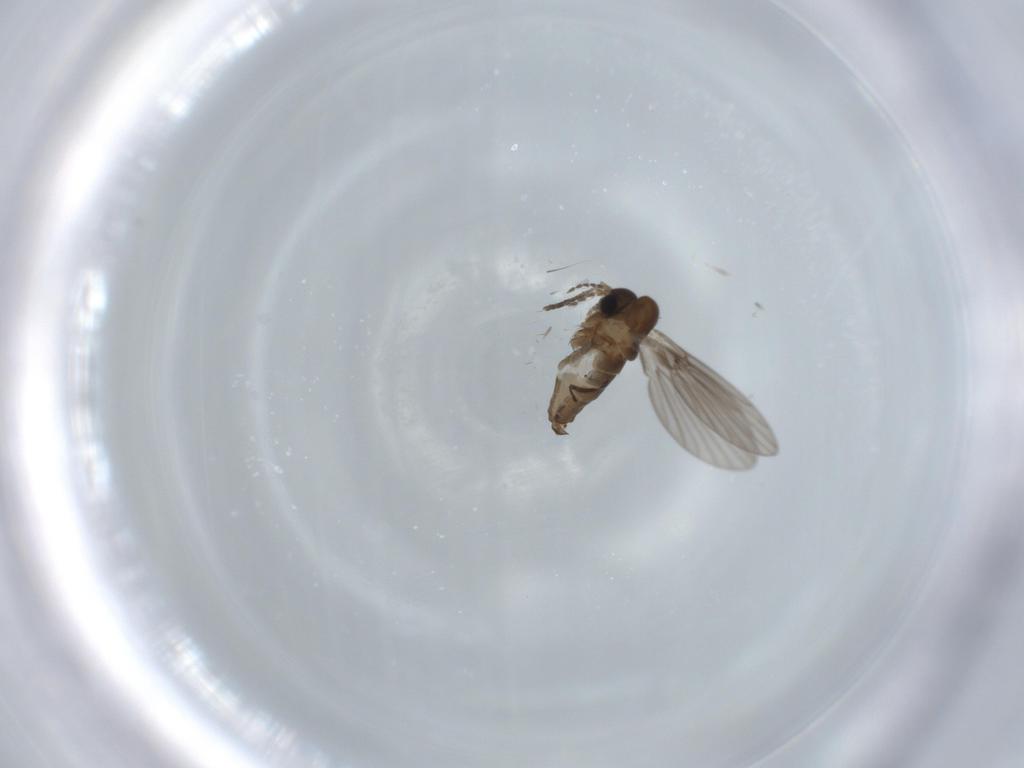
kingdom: Animalia
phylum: Arthropoda
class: Insecta
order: Diptera
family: Psychodidae
